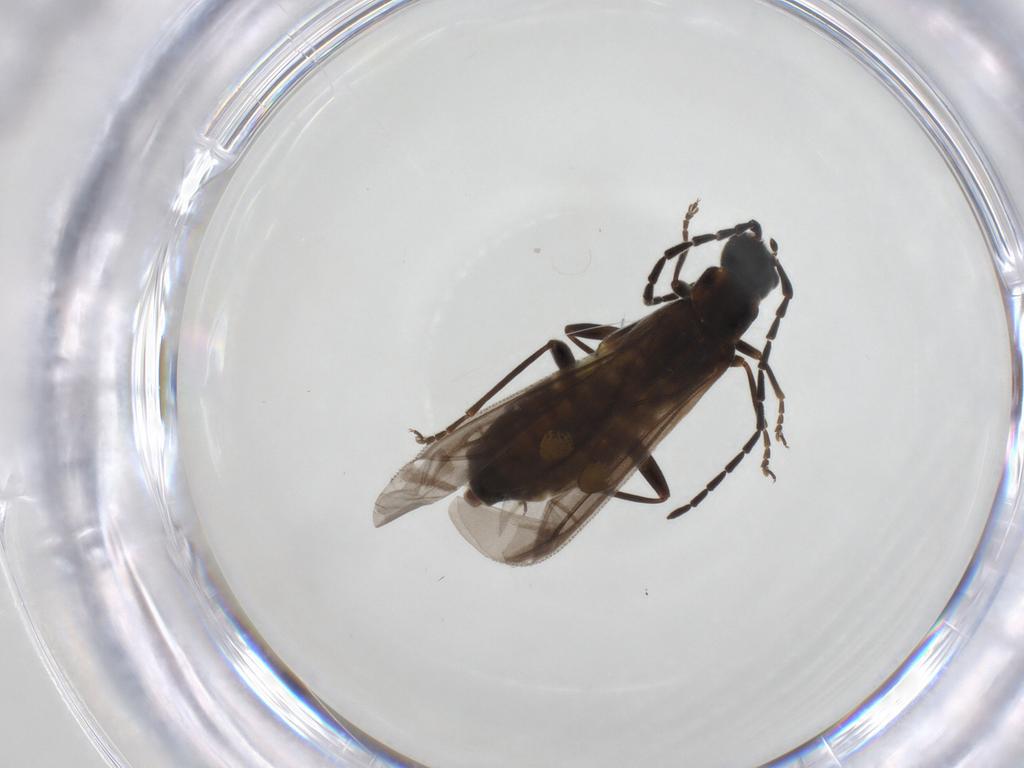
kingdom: Animalia
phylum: Arthropoda
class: Insecta
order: Coleoptera
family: Cantharidae
